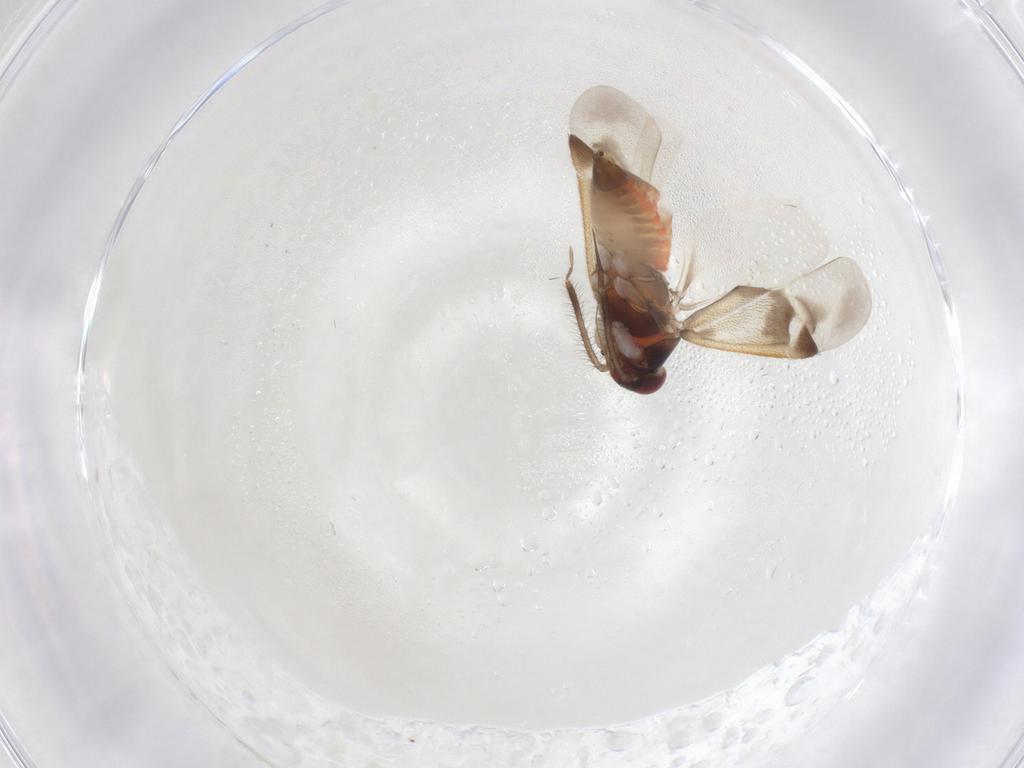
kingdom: Animalia
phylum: Arthropoda
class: Insecta
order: Hemiptera
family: Miridae
